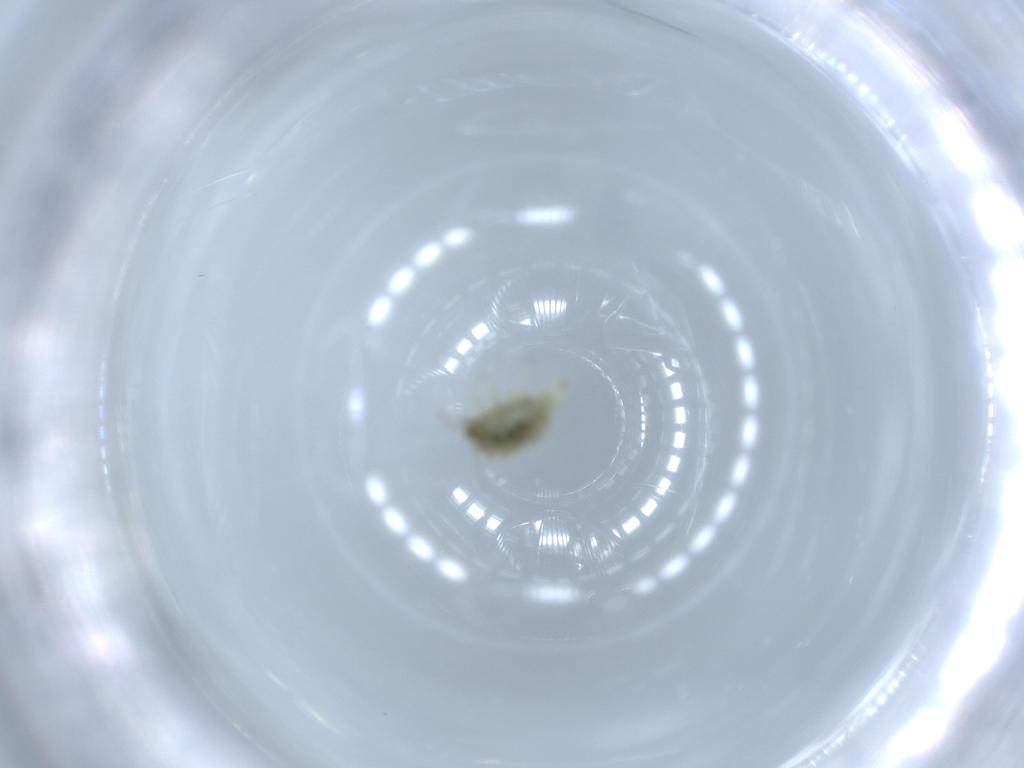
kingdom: Animalia
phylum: Arthropoda
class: Insecta
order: Neuroptera
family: Coniopterygidae
